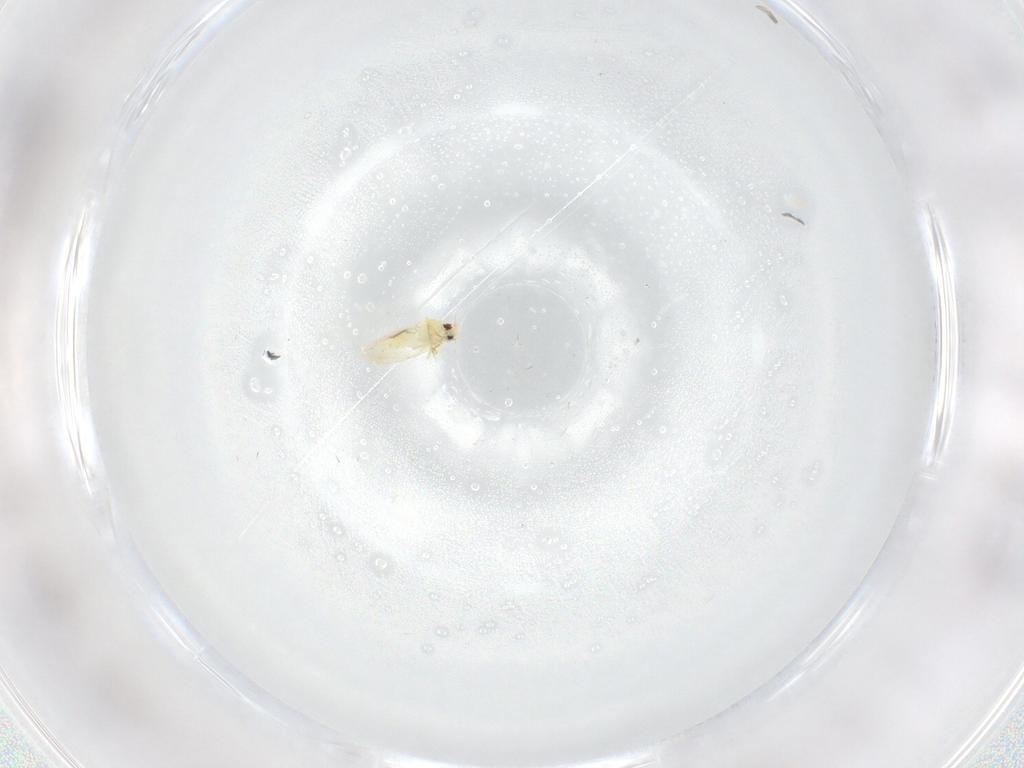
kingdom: Animalia
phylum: Arthropoda
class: Insecta
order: Hemiptera
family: Aleyrodidae
